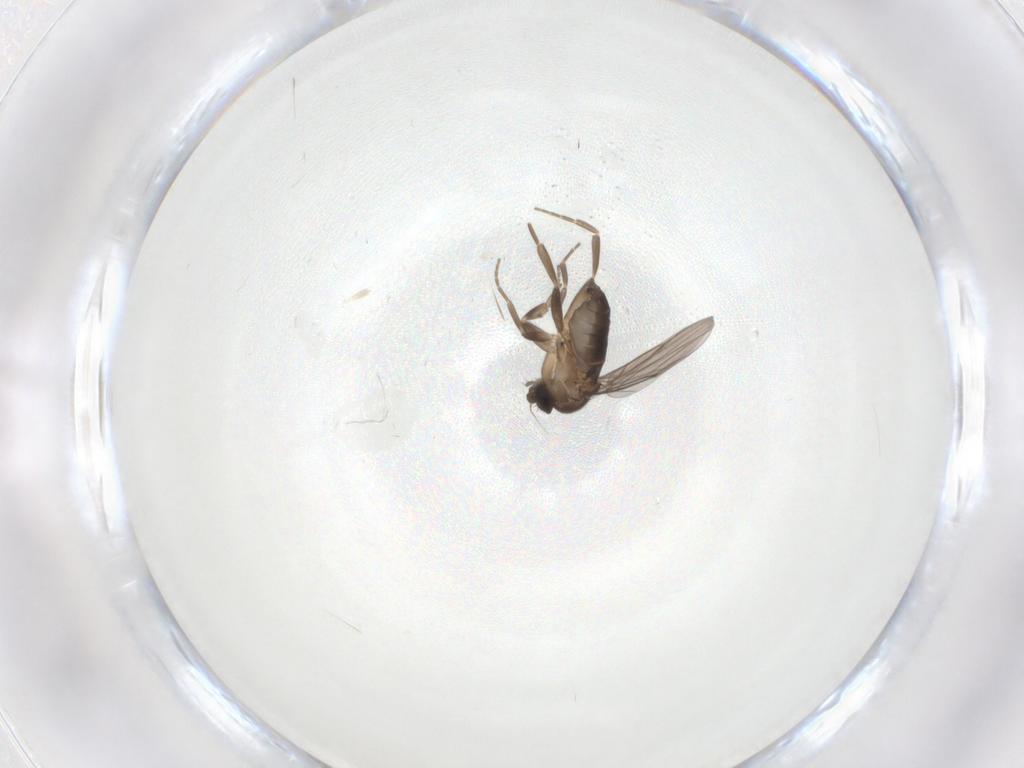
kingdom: Animalia
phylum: Arthropoda
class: Insecta
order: Diptera
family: Phoridae
